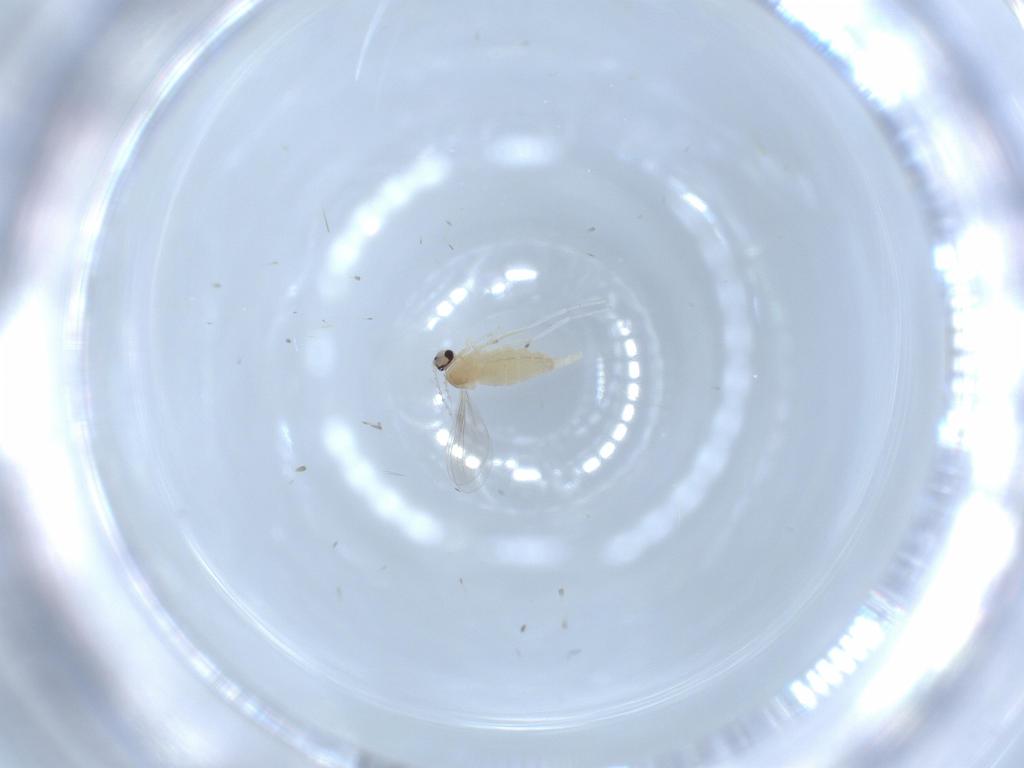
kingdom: Animalia
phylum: Arthropoda
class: Insecta
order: Diptera
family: Cecidomyiidae
